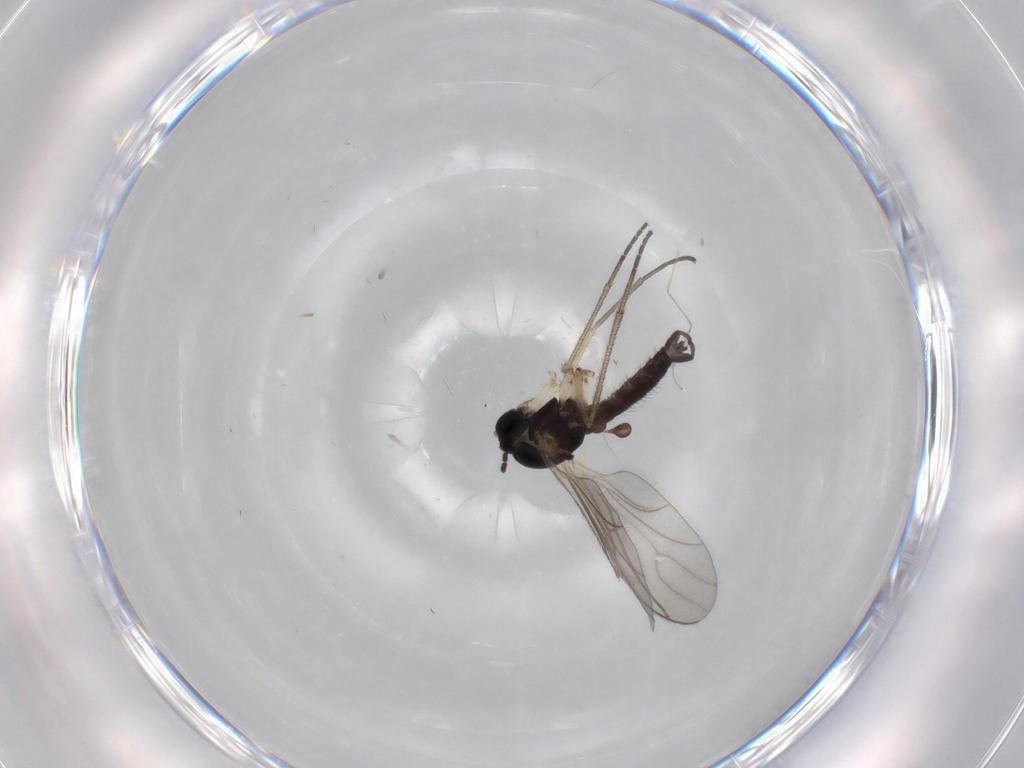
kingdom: Animalia
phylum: Arthropoda
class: Insecta
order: Diptera
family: Sciaridae
